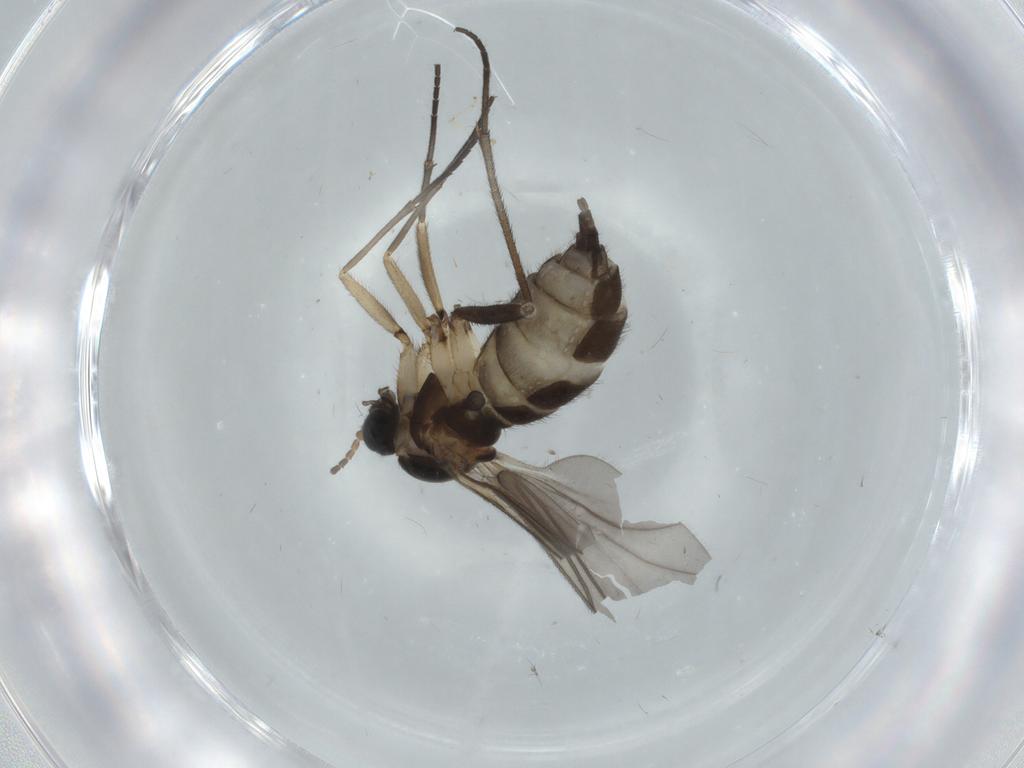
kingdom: Animalia
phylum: Arthropoda
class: Insecta
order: Diptera
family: Sciaridae
